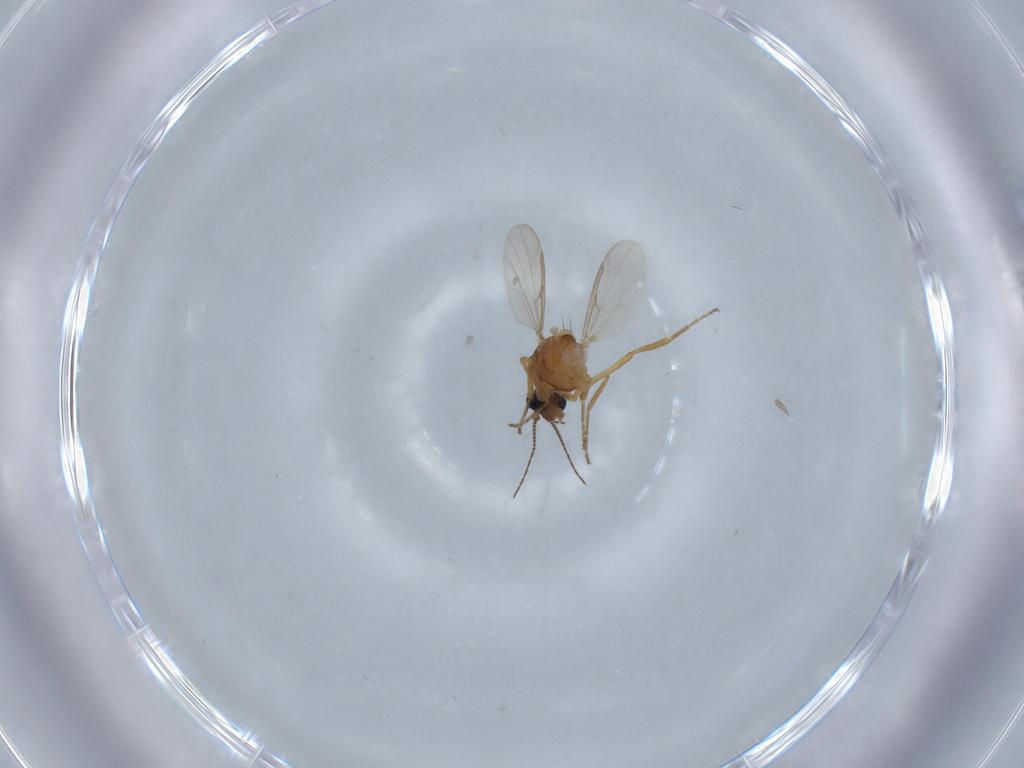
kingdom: Animalia
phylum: Arthropoda
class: Insecta
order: Diptera
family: Ceratopogonidae
